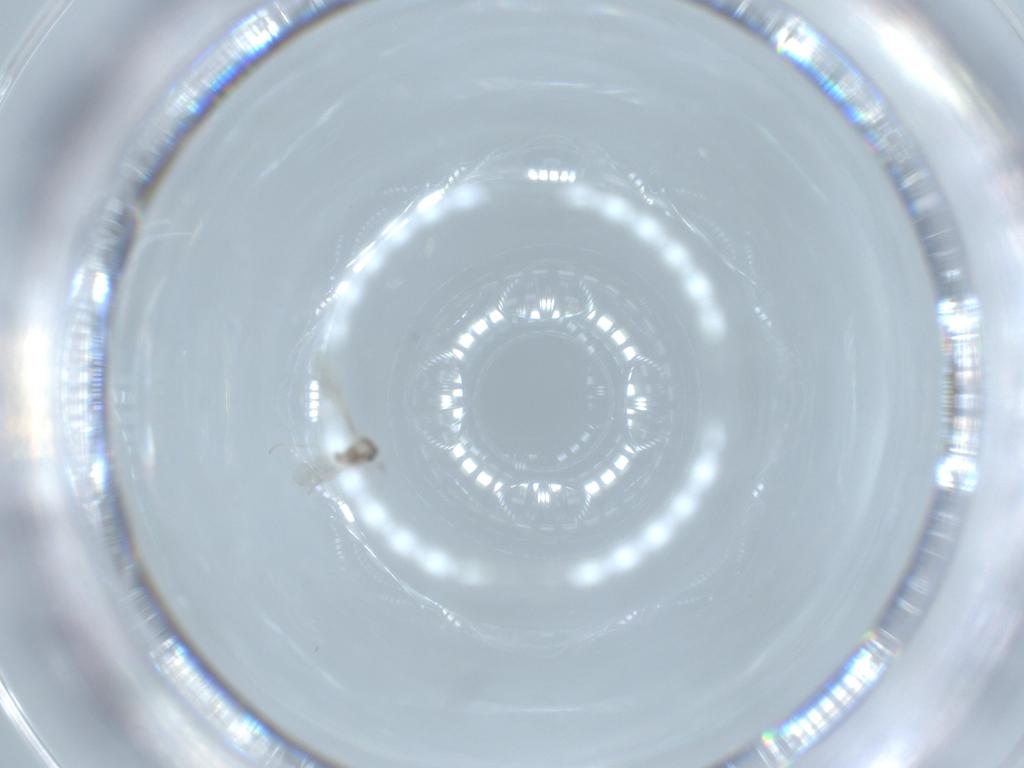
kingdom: Animalia
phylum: Arthropoda
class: Insecta
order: Diptera
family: Cecidomyiidae
